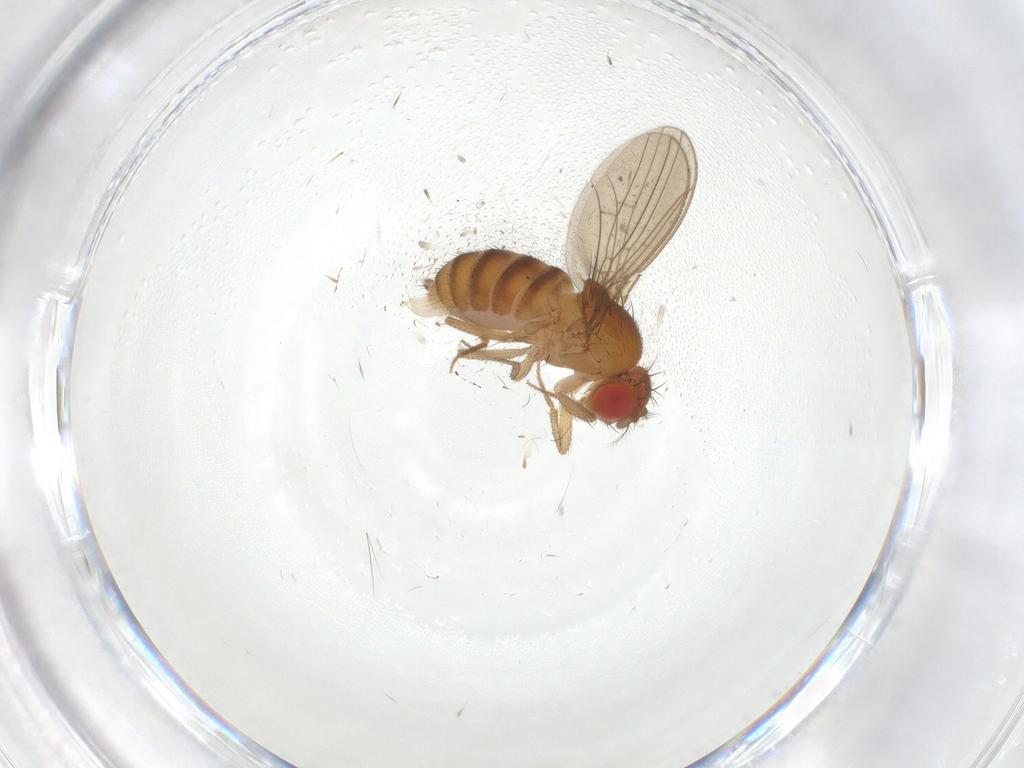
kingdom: Animalia
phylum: Arthropoda
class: Insecta
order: Diptera
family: Drosophilidae
